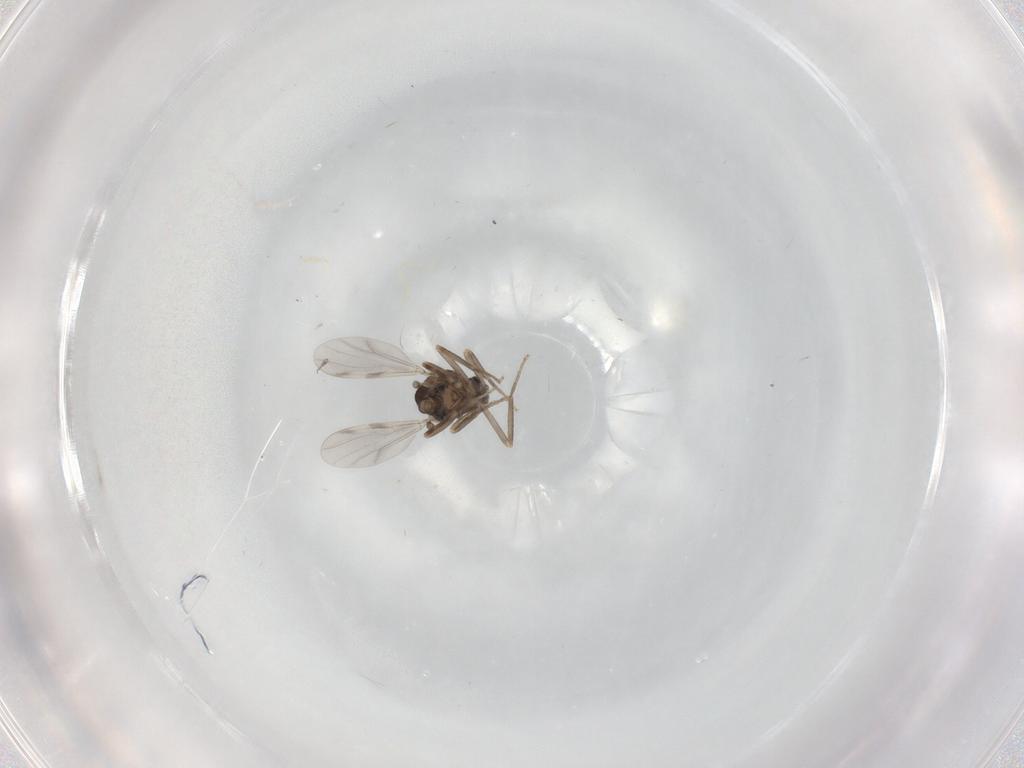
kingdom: Animalia
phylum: Arthropoda
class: Insecta
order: Diptera
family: Ceratopogonidae
